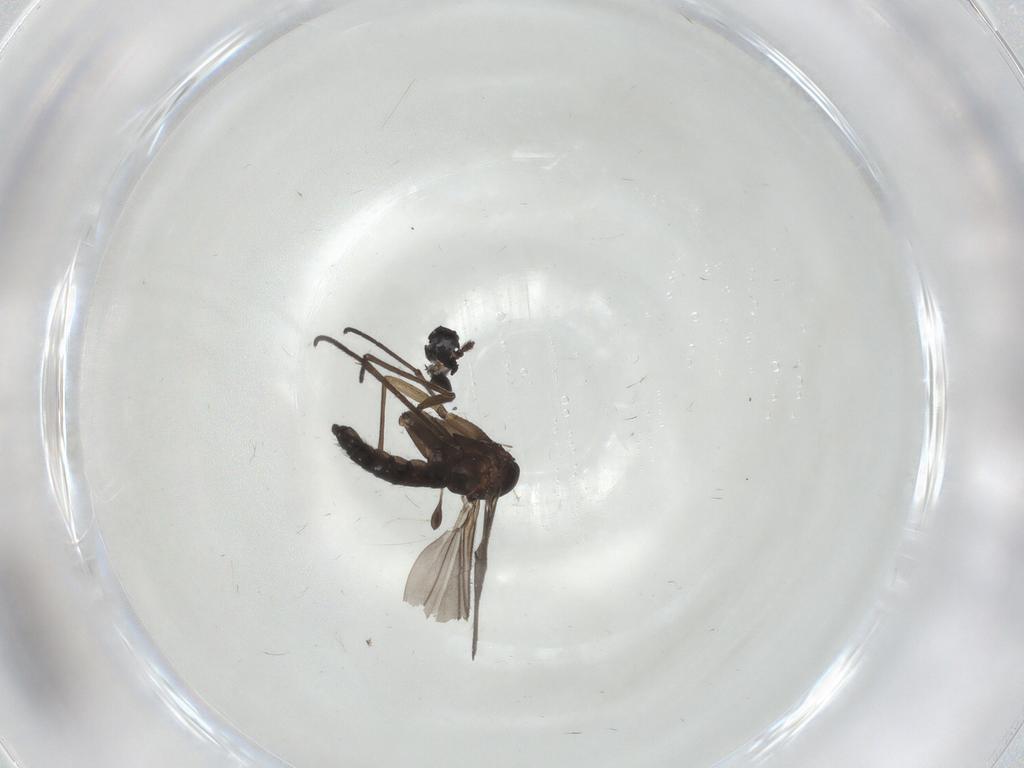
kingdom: Animalia
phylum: Arthropoda
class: Insecta
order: Diptera
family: Sciaridae
